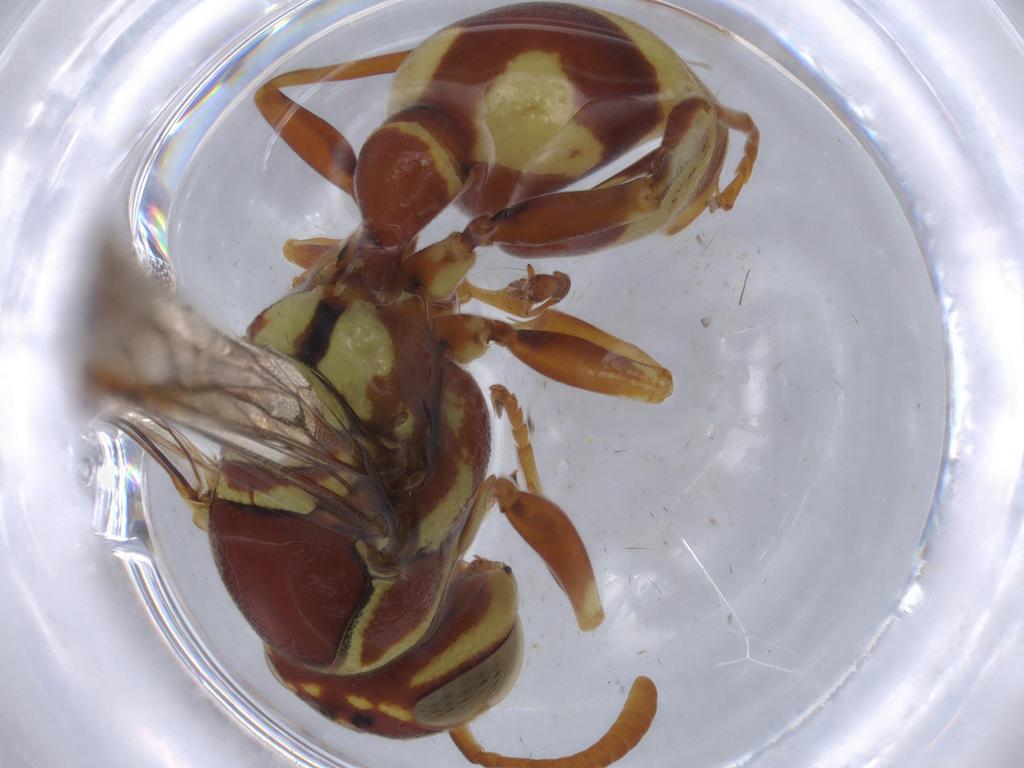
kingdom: Animalia
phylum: Arthropoda
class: Insecta
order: Hymenoptera
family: Vespidae
